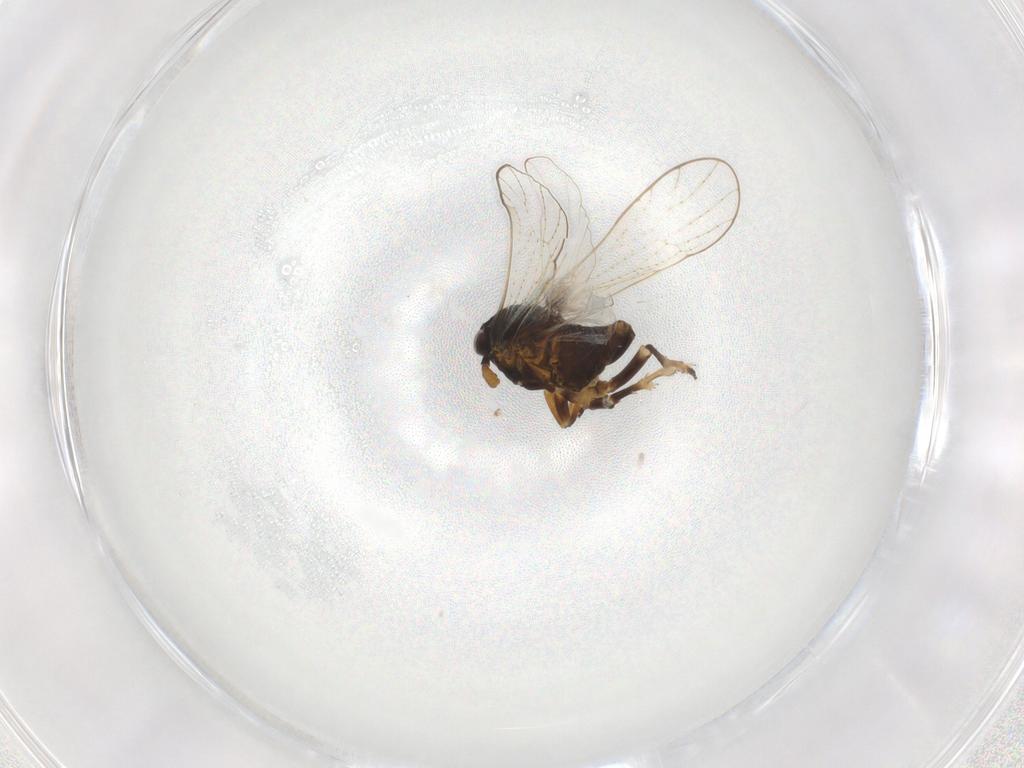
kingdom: Animalia
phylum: Arthropoda
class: Insecta
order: Hemiptera
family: Delphacidae
